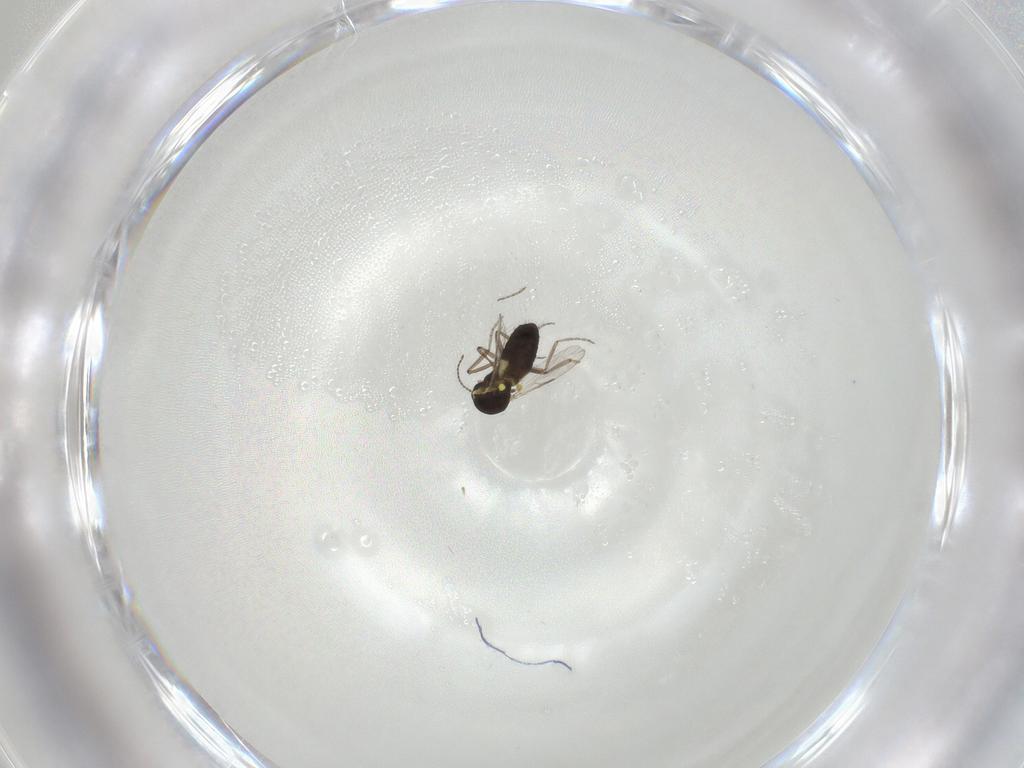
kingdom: Animalia
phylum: Arthropoda
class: Insecta
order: Diptera
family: Ceratopogonidae
